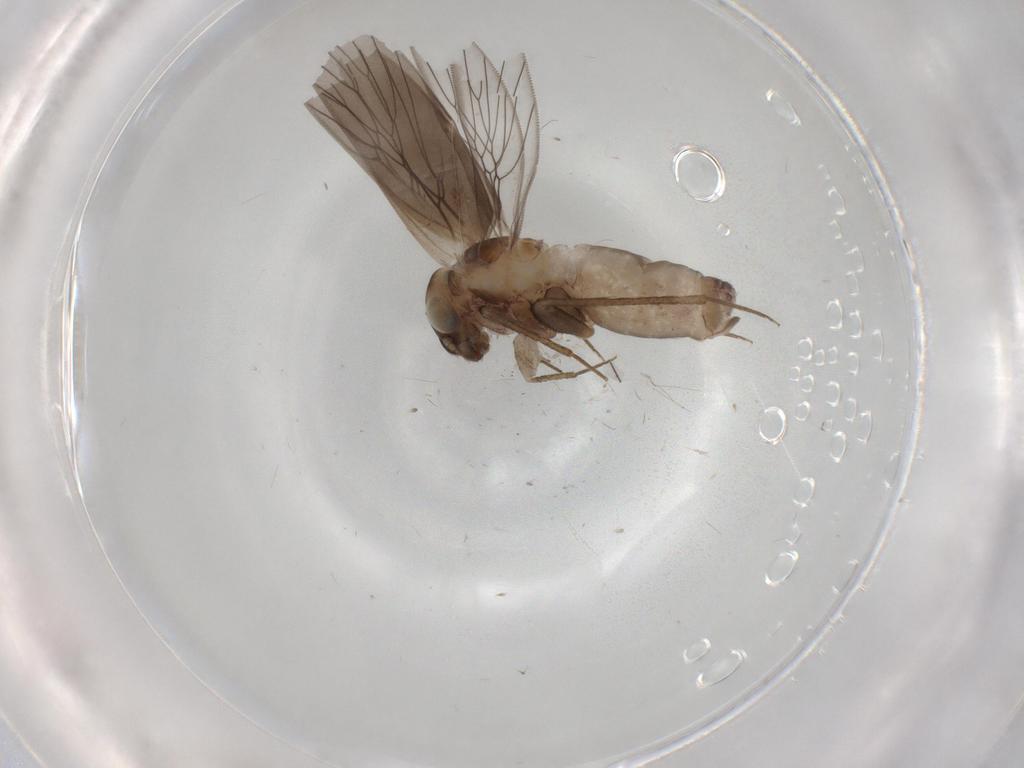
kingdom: Animalia
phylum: Arthropoda
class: Insecta
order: Psocodea
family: Lepidopsocidae
